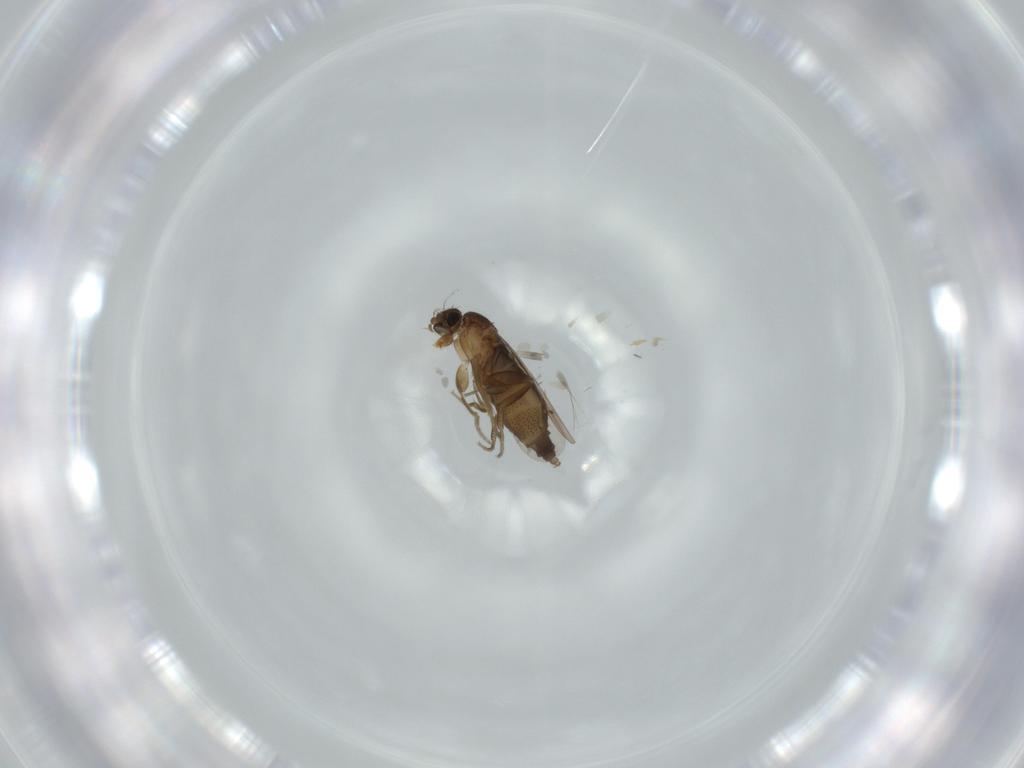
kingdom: Animalia
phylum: Arthropoda
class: Insecta
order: Diptera
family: Phoridae
